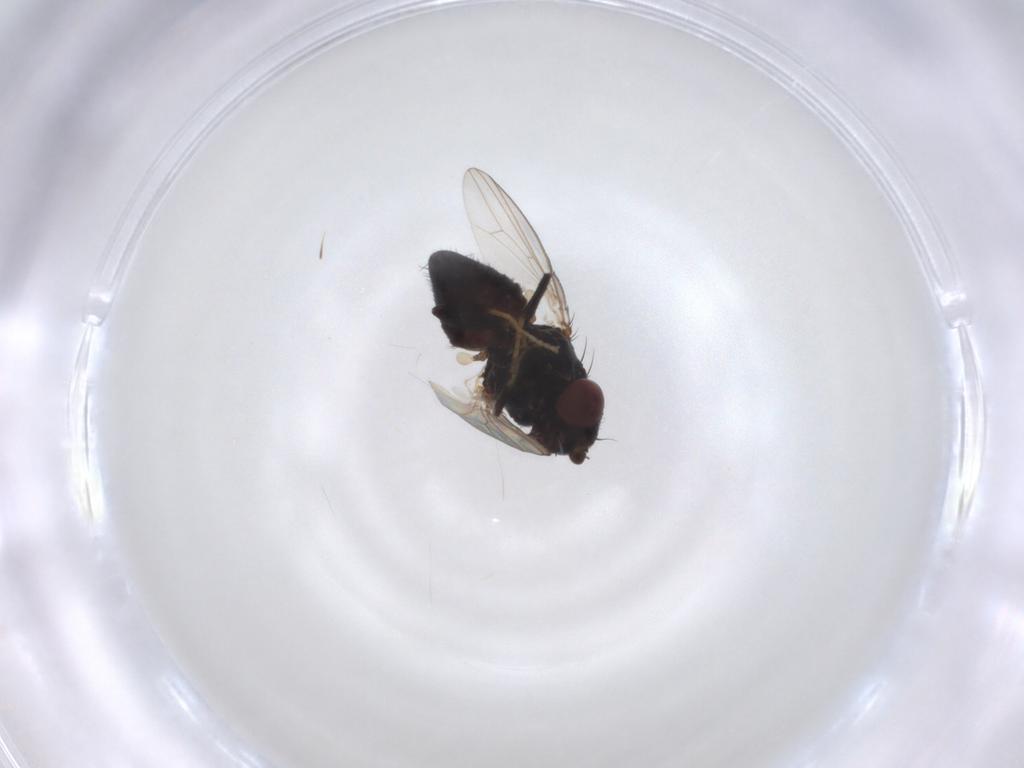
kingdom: Animalia
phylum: Arthropoda
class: Insecta
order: Diptera
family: Milichiidae
